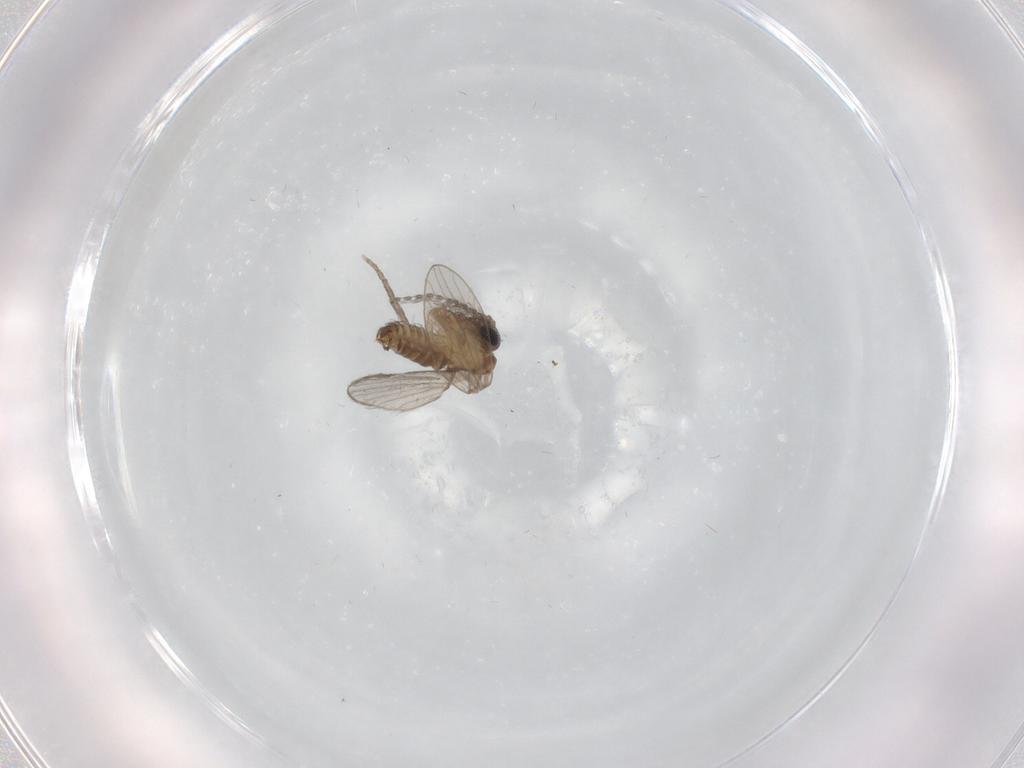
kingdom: Animalia
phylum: Arthropoda
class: Insecta
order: Diptera
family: Psychodidae
